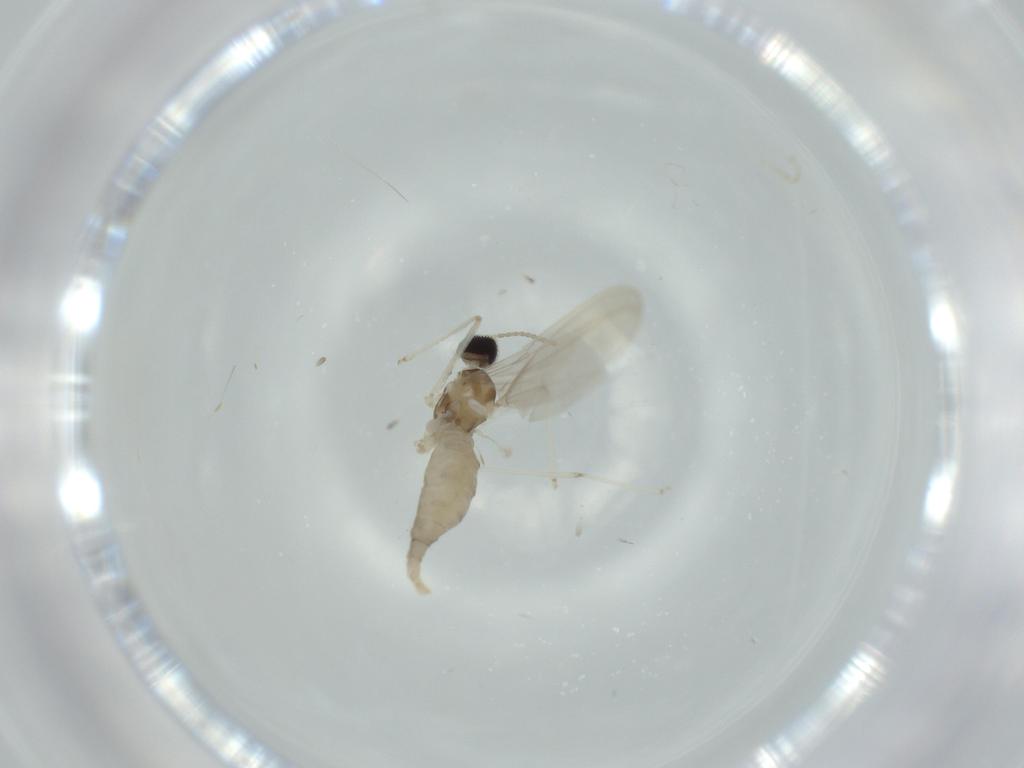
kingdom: Animalia
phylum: Arthropoda
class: Insecta
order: Diptera
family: Cecidomyiidae
